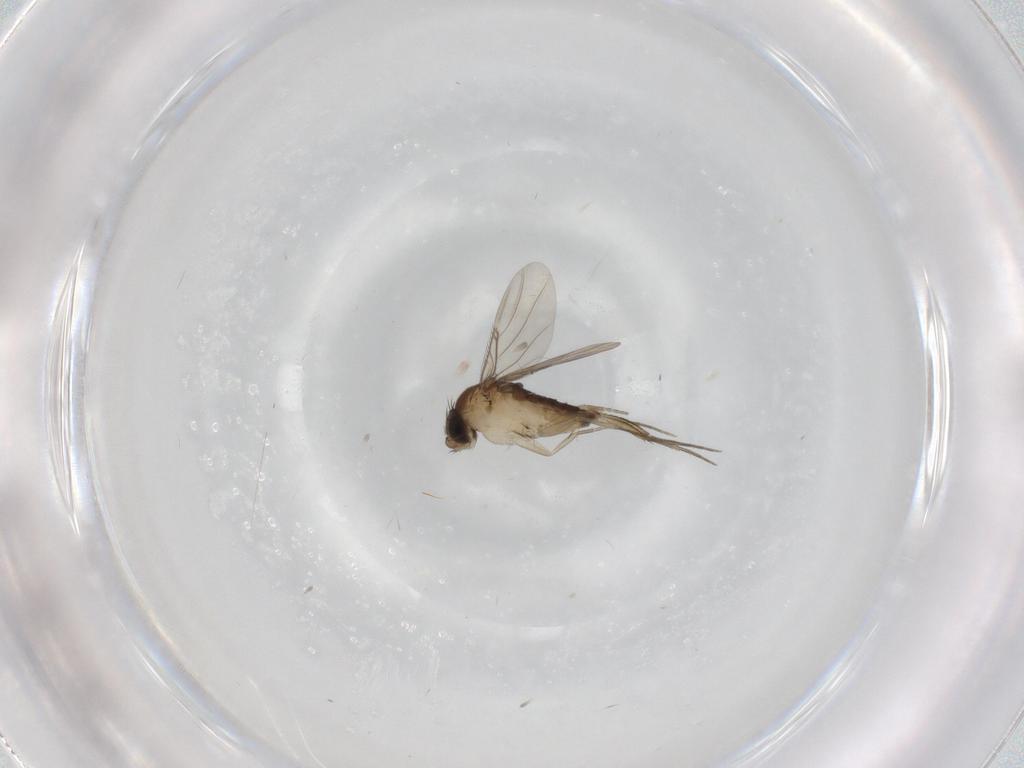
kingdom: Animalia
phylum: Arthropoda
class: Insecta
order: Diptera
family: Phoridae
